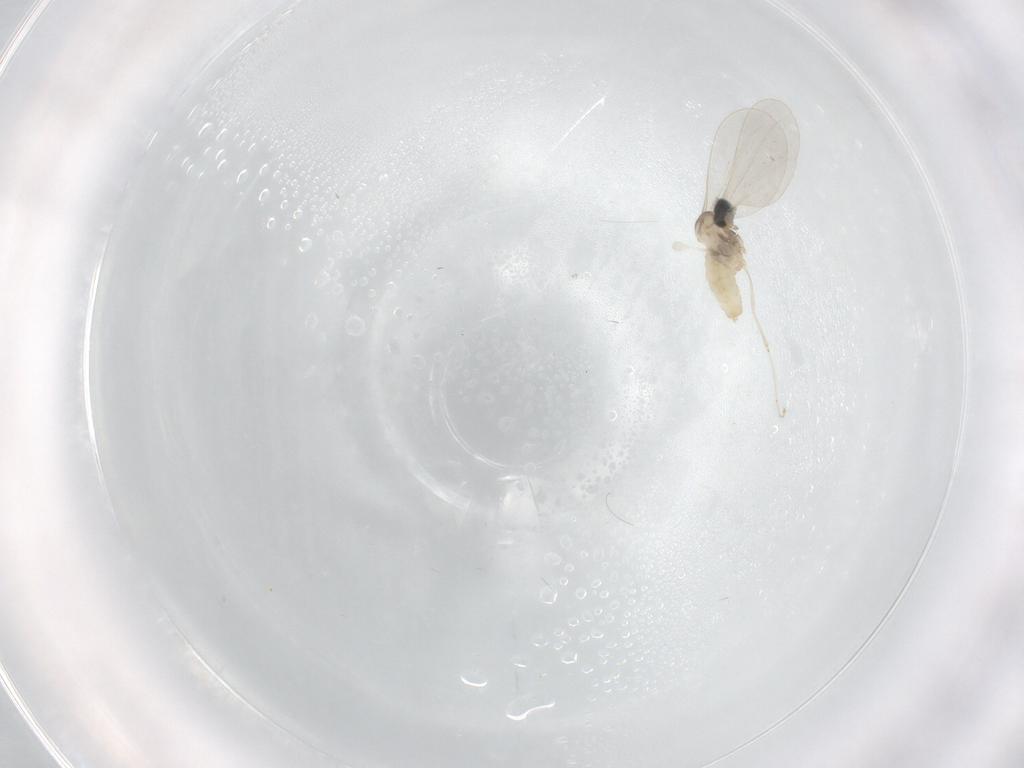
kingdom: Animalia
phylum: Arthropoda
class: Insecta
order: Diptera
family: Cecidomyiidae
